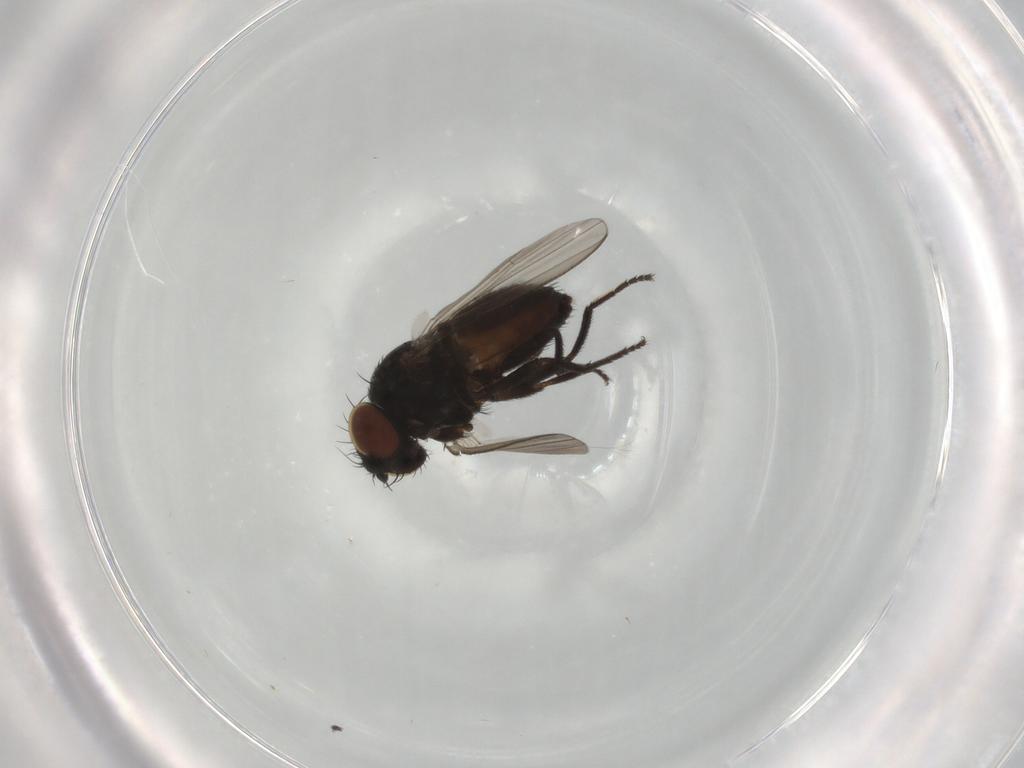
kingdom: Animalia
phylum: Arthropoda
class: Insecta
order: Diptera
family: Milichiidae
